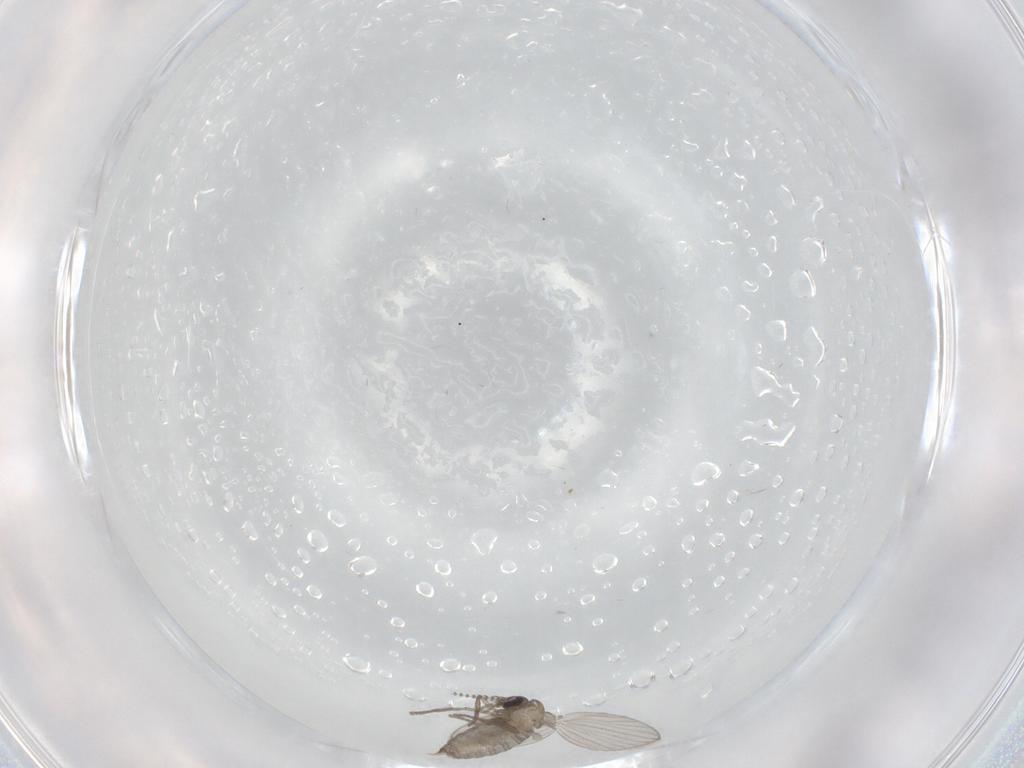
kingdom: Animalia
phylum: Arthropoda
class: Insecta
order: Diptera
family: Psychodidae
